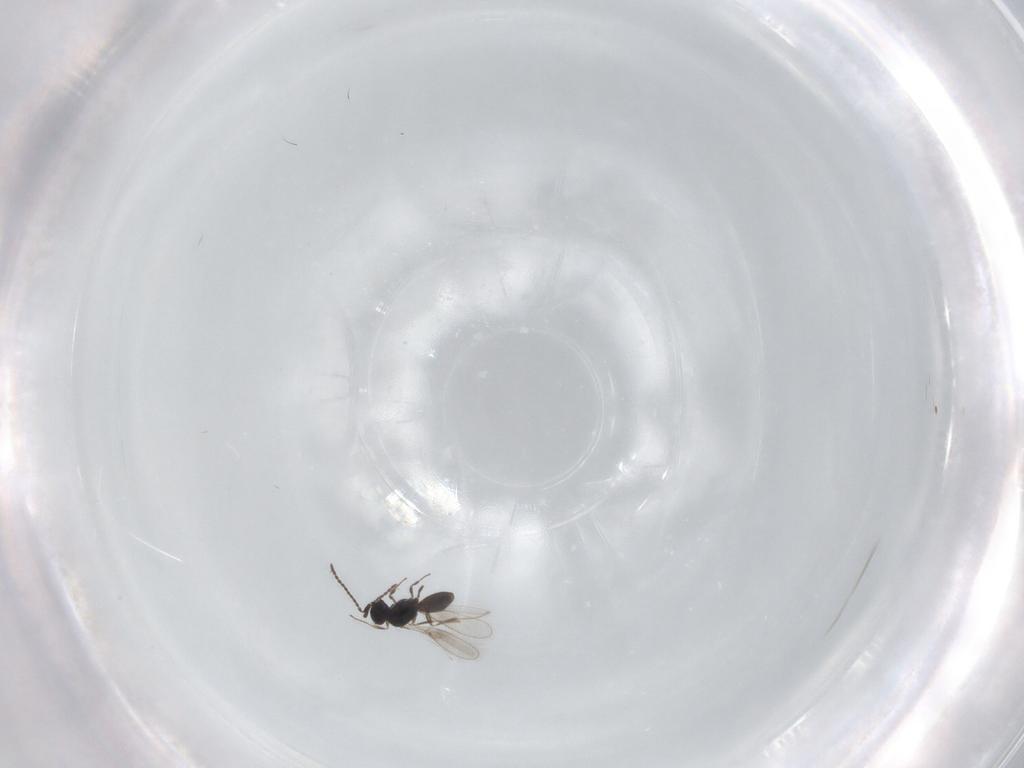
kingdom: Animalia
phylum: Arthropoda
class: Insecta
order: Hymenoptera
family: Scelionidae
